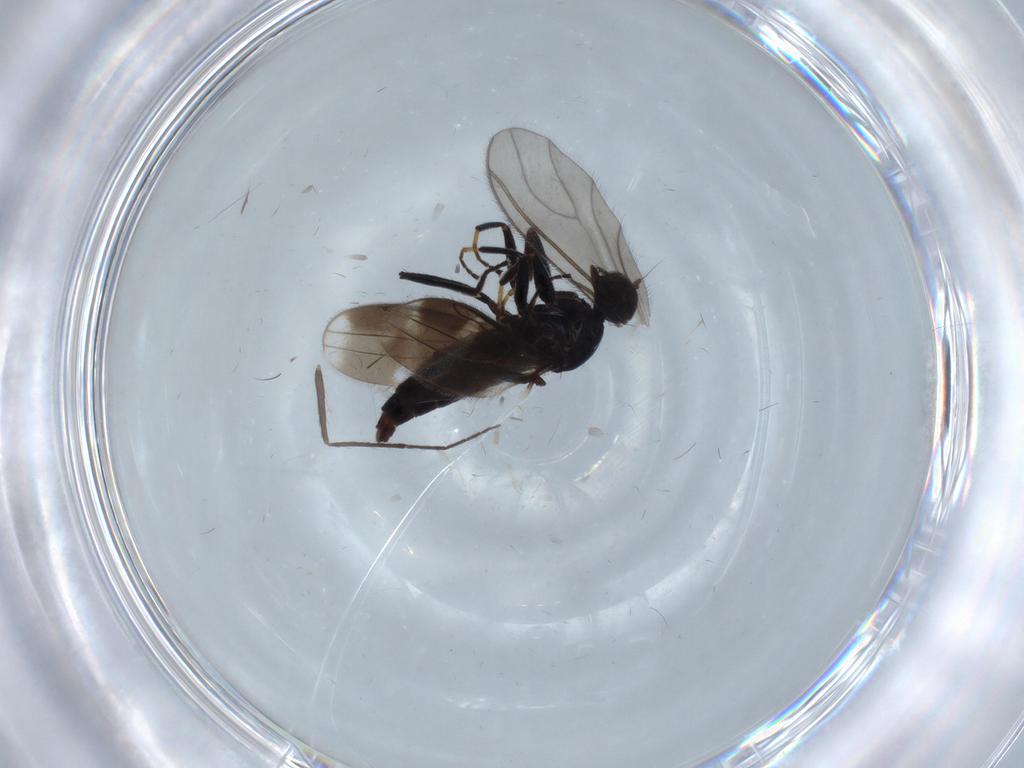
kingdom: Animalia
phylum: Arthropoda
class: Insecta
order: Diptera
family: Hybotidae
